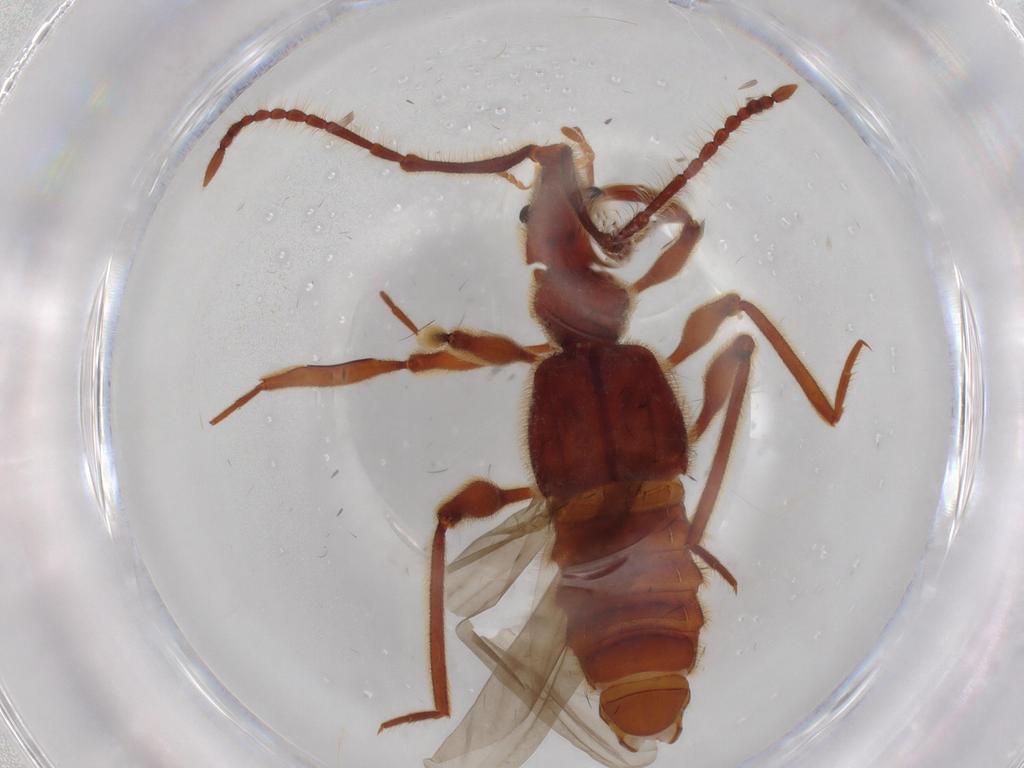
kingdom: Animalia
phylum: Arthropoda
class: Insecta
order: Coleoptera
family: Staphylinidae
